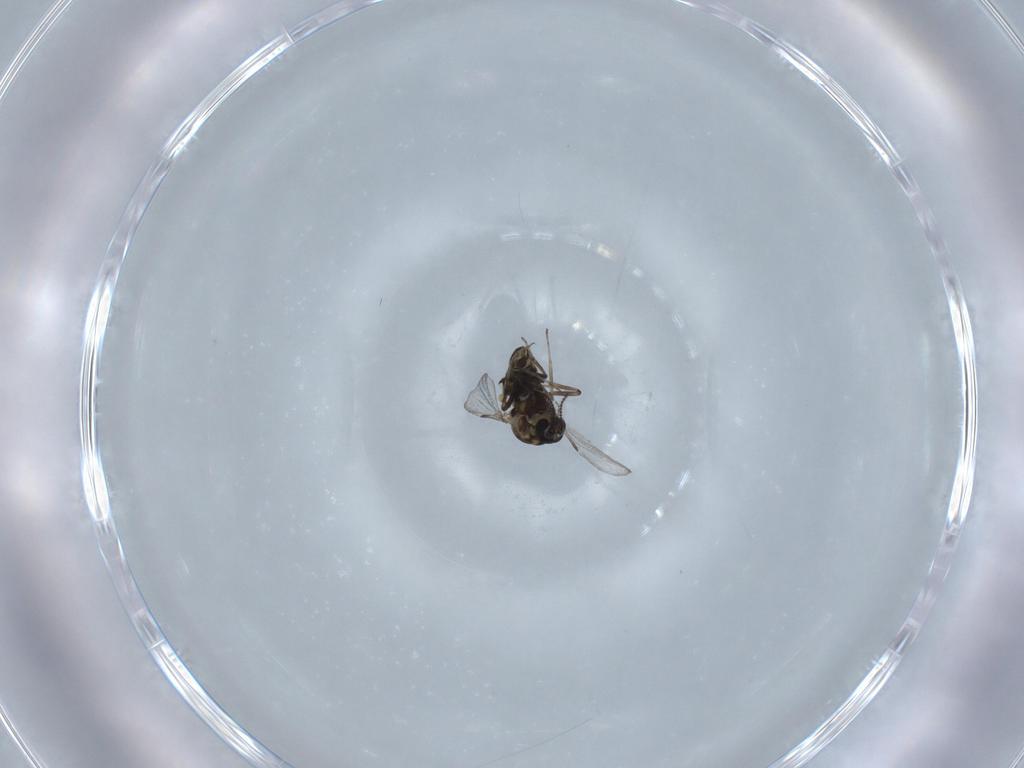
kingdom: Animalia
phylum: Arthropoda
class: Insecta
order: Diptera
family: Ceratopogonidae
